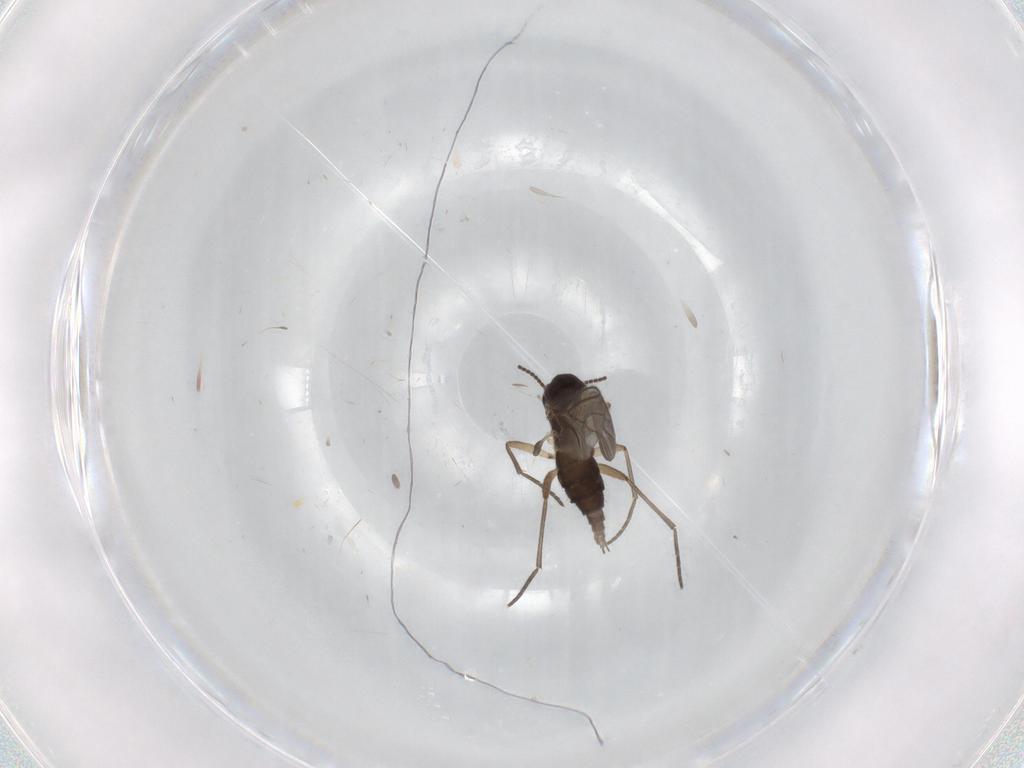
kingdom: Animalia
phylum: Arthropoda
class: Insecta
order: Diptera
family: Sciaridae
